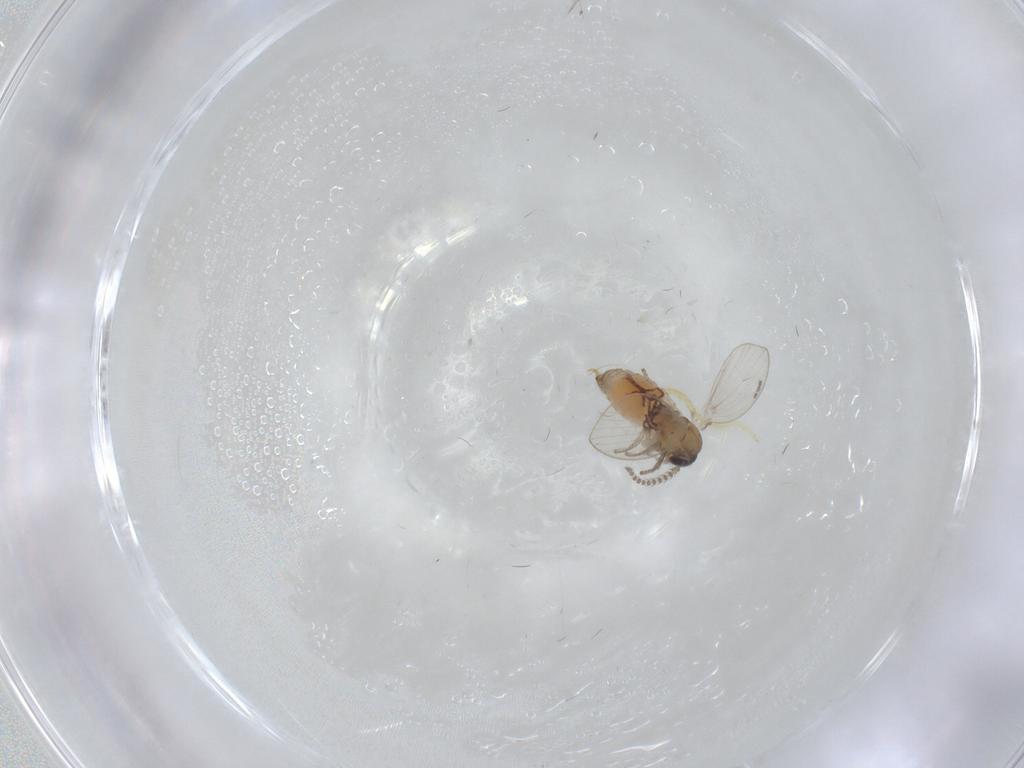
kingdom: Animalia
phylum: Arthropoda
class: Insecta
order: Diptera
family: Psychodidae
